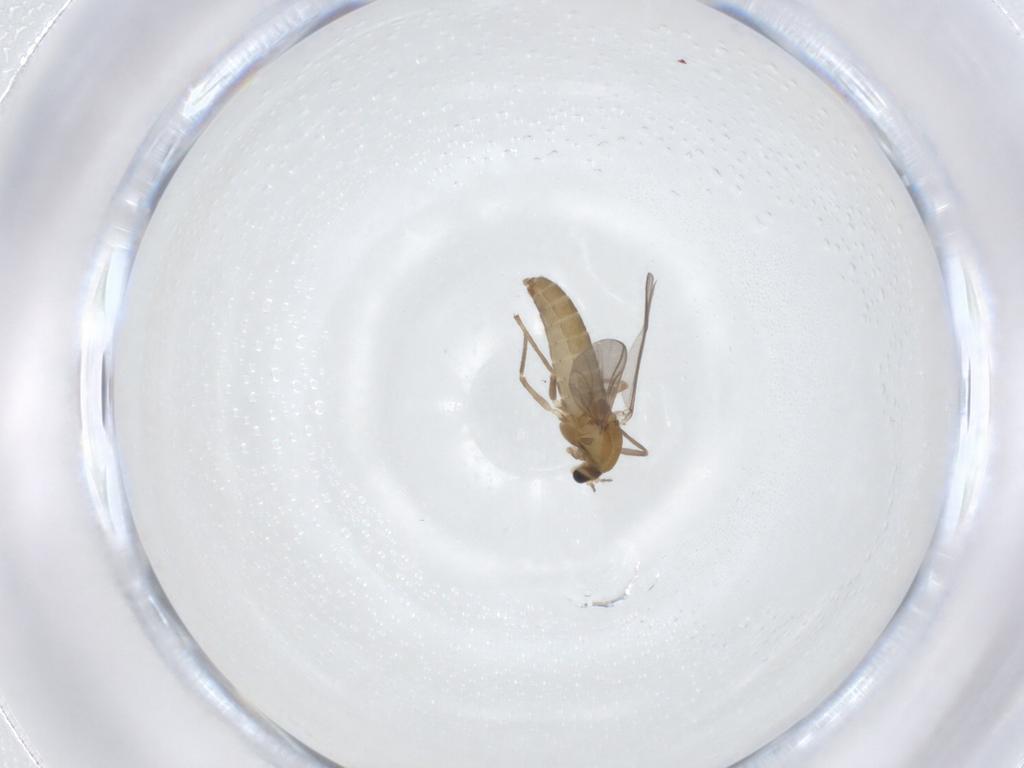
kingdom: Animalia
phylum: Arthropoda
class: Insecta
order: Diptera
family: Chironomidae
